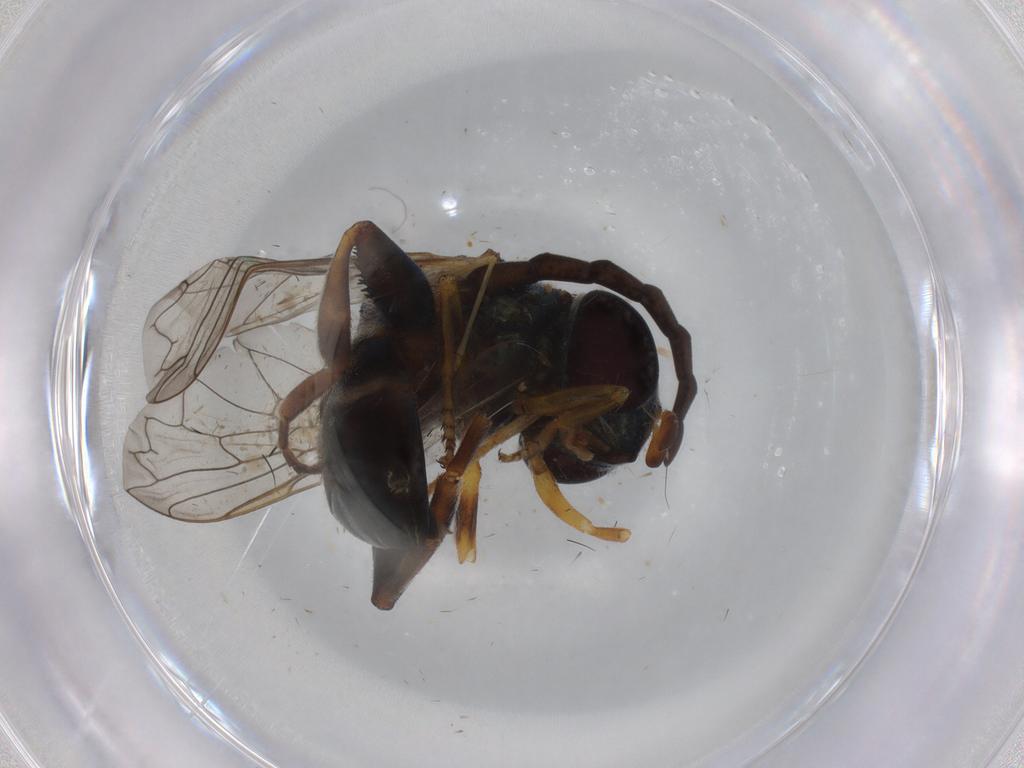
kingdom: Animalia
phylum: Arthropoda
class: Insecta
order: Diptera
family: Syrphidae
